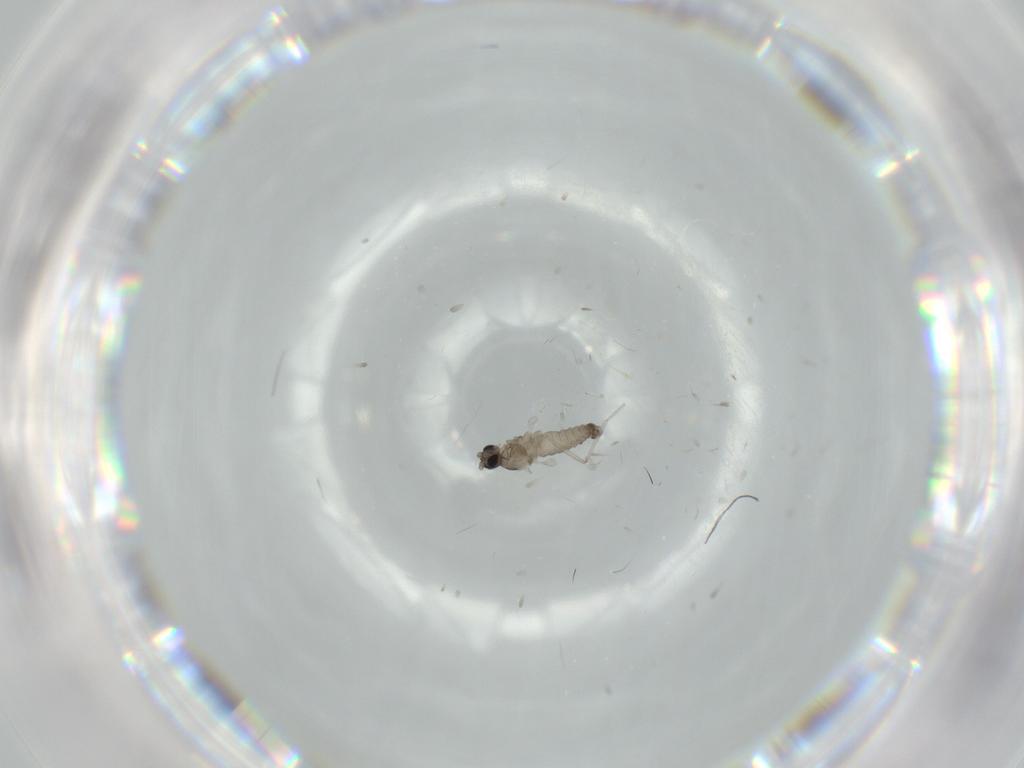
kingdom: Animalia
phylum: Arthropoda
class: Insecta
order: Diptera
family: Cecidomyiidae
